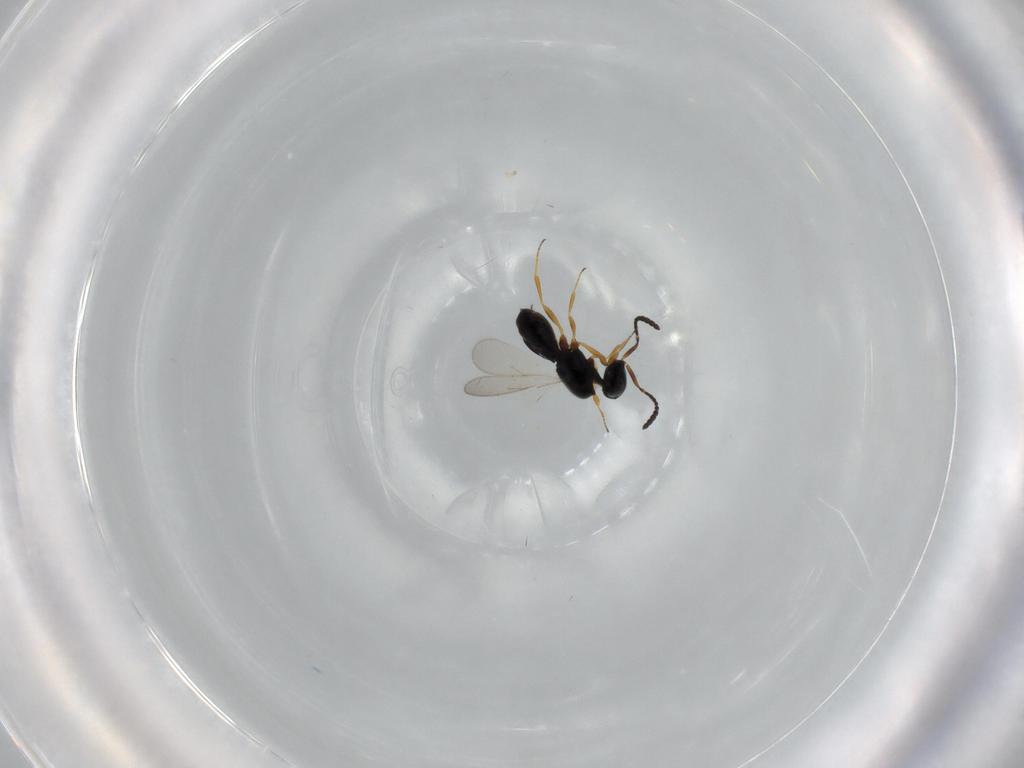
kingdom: Animalia
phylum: Arthropoda
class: Insecta
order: Hymenoptera
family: Scelionidae
